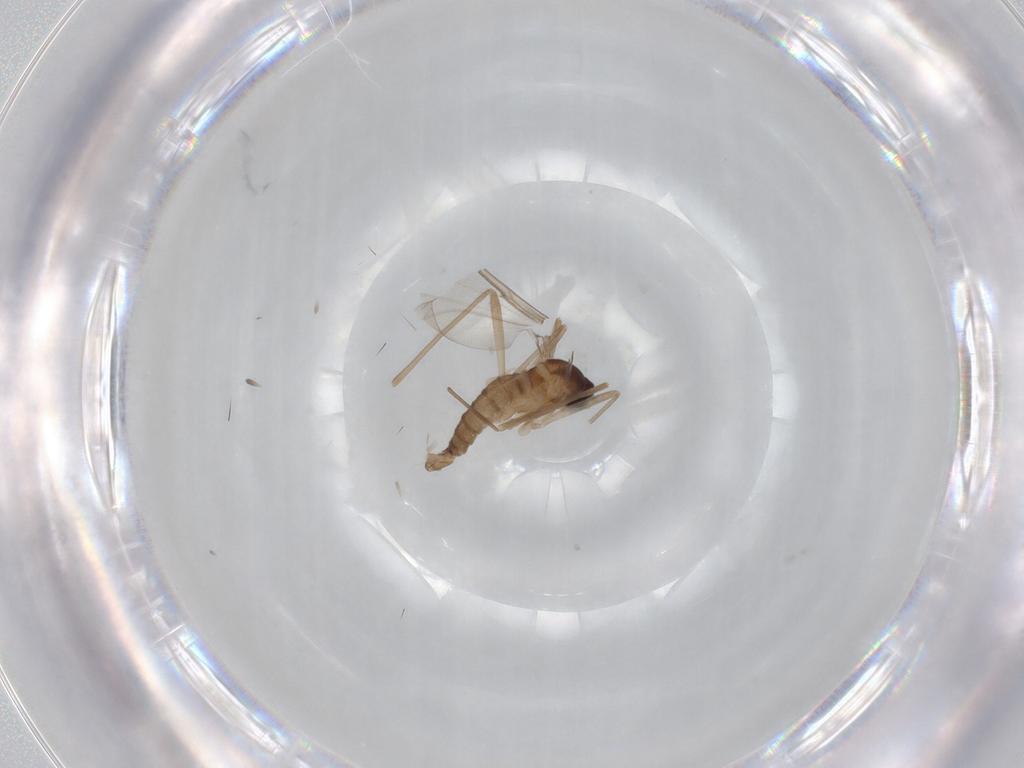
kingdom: Animalia
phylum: Arthropoda
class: Insecta
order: Diptera
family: Chironomidae
